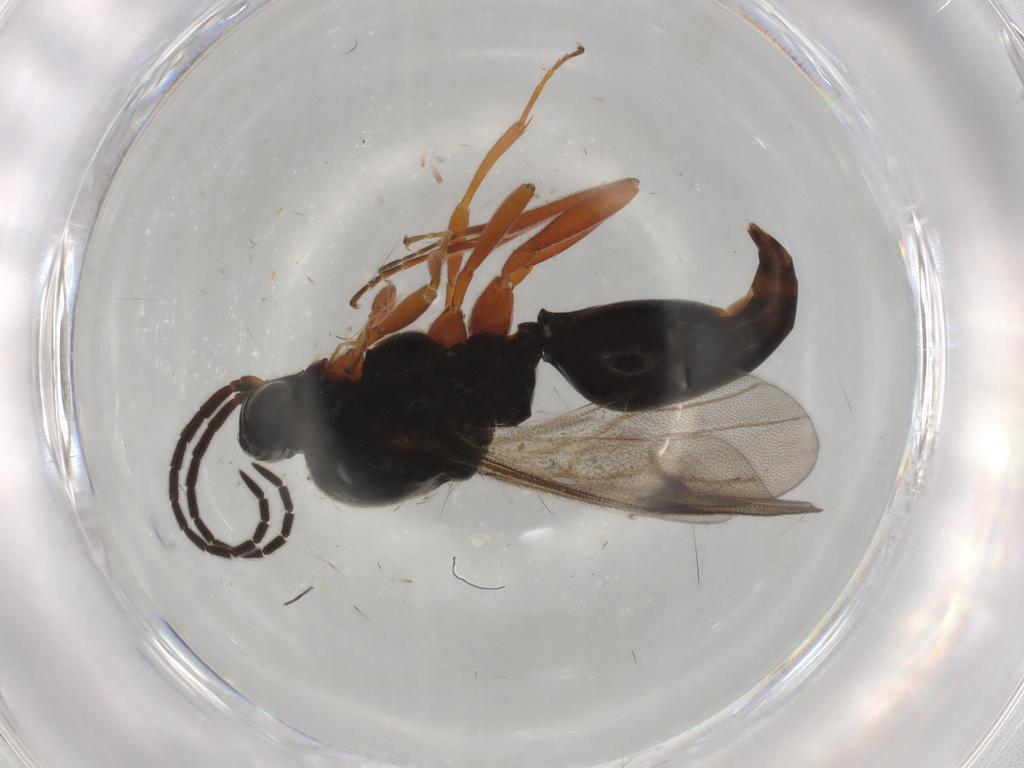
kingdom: Animalia
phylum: Arthropoda
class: Insecta
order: Hymenoptera
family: Proctotrupidae
